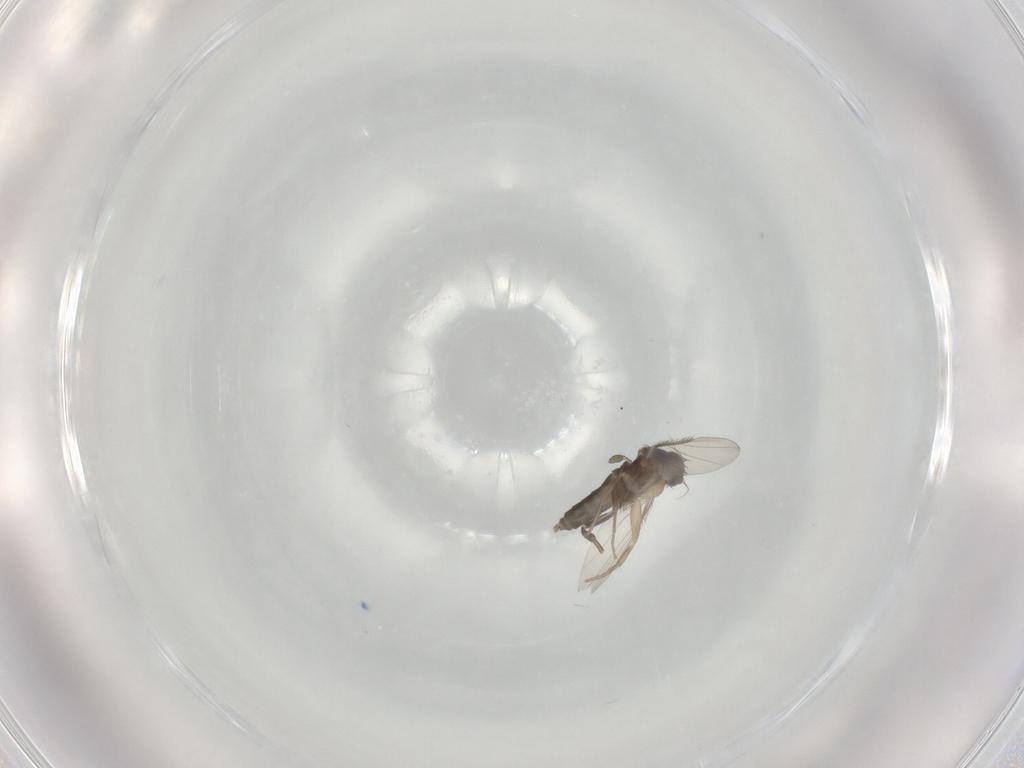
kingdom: Animalia
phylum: Arthropoda
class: Insecta
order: Diptera
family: Phoridae
